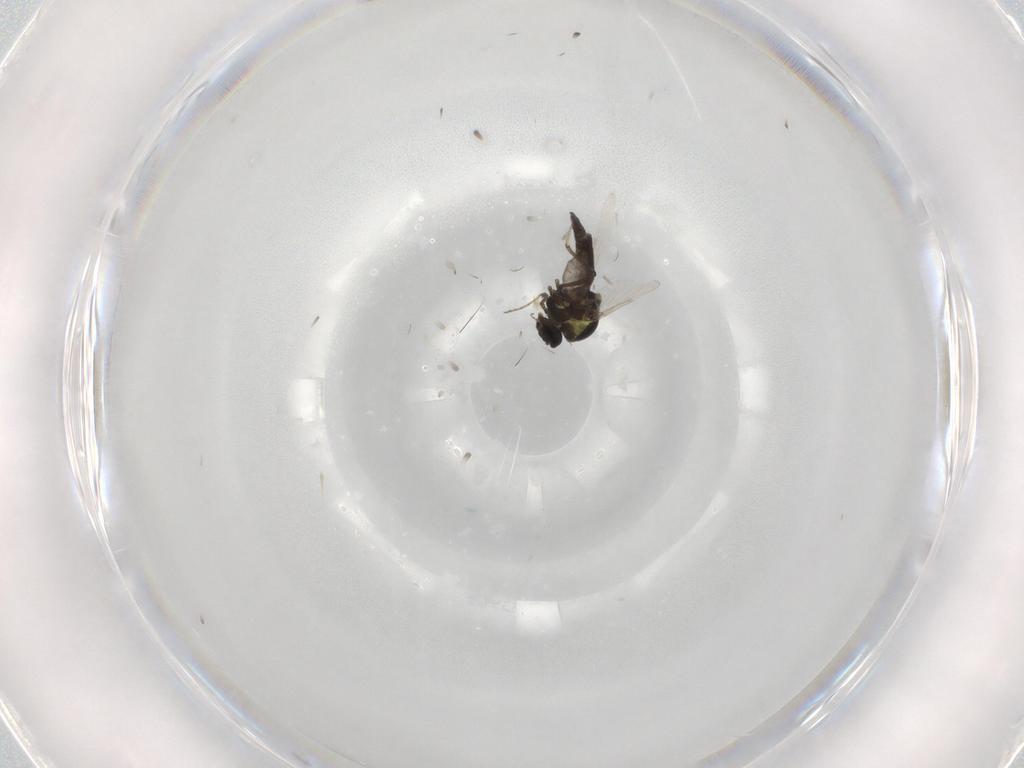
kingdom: Animalia
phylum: Arthropoda
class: Insecta
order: Diptera
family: Ceratopogonidae
